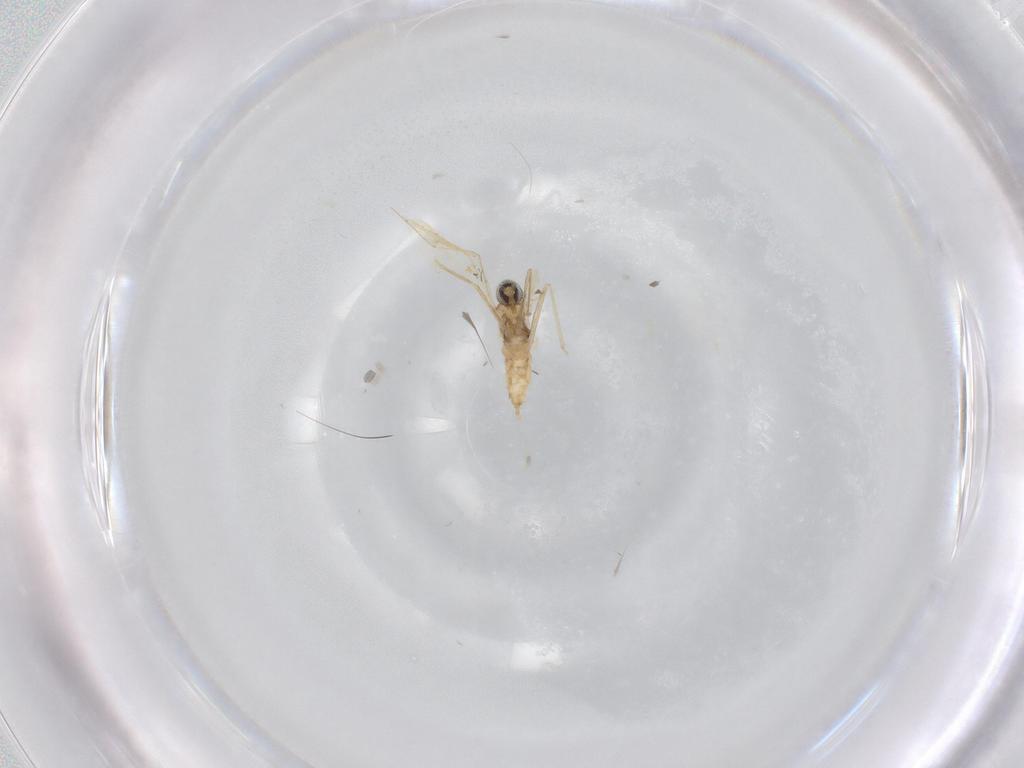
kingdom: Animalia
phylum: Arthropoda
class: Insecta
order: Diptera
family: Cecidomyiidae
